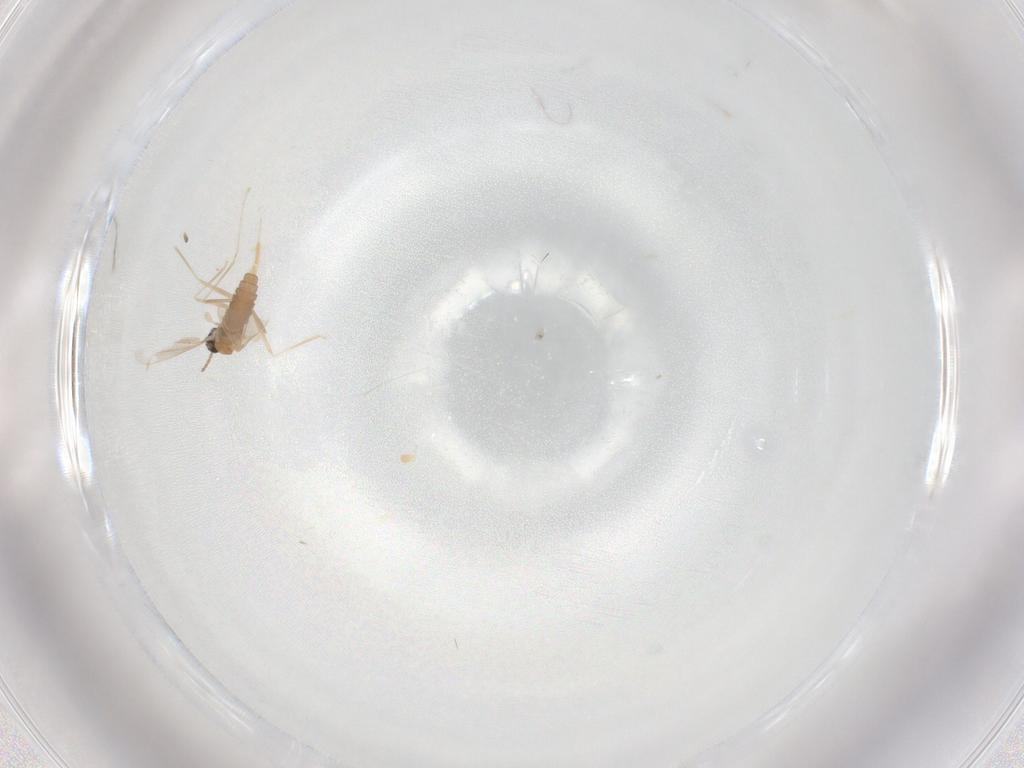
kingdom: Animalia
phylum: Arthropoda
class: Insecta
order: Diptera
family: Cecidomyiidae
